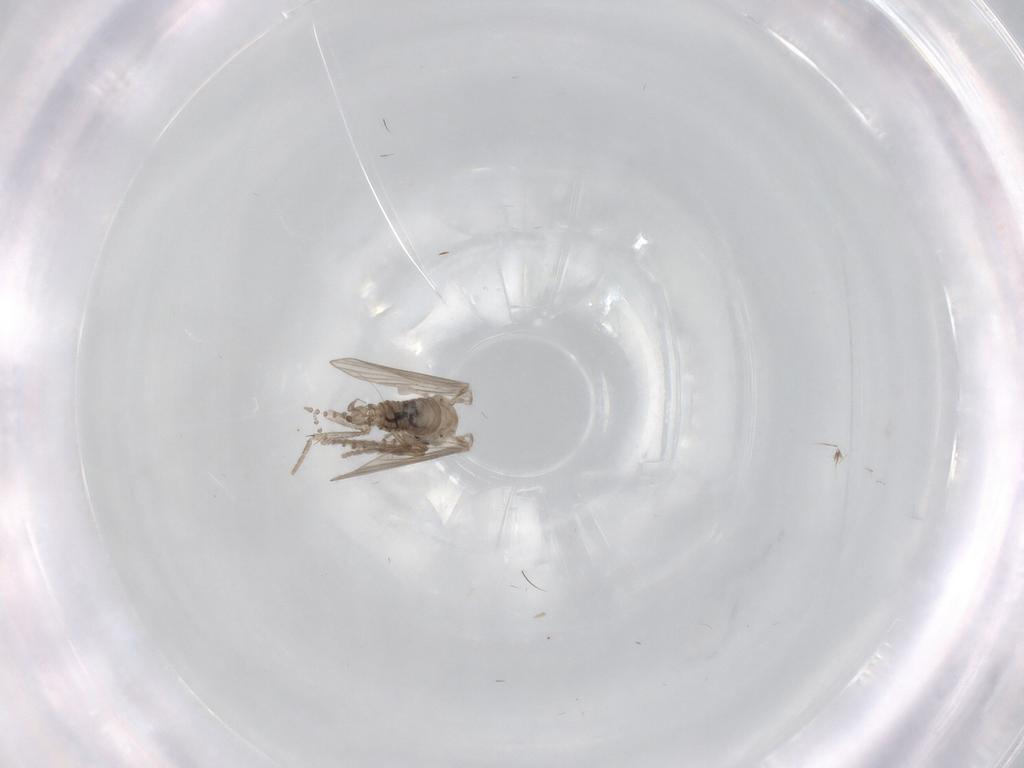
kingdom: Animalia
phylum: Arthropoda
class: Insecta
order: Diptera
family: Psychodidae
